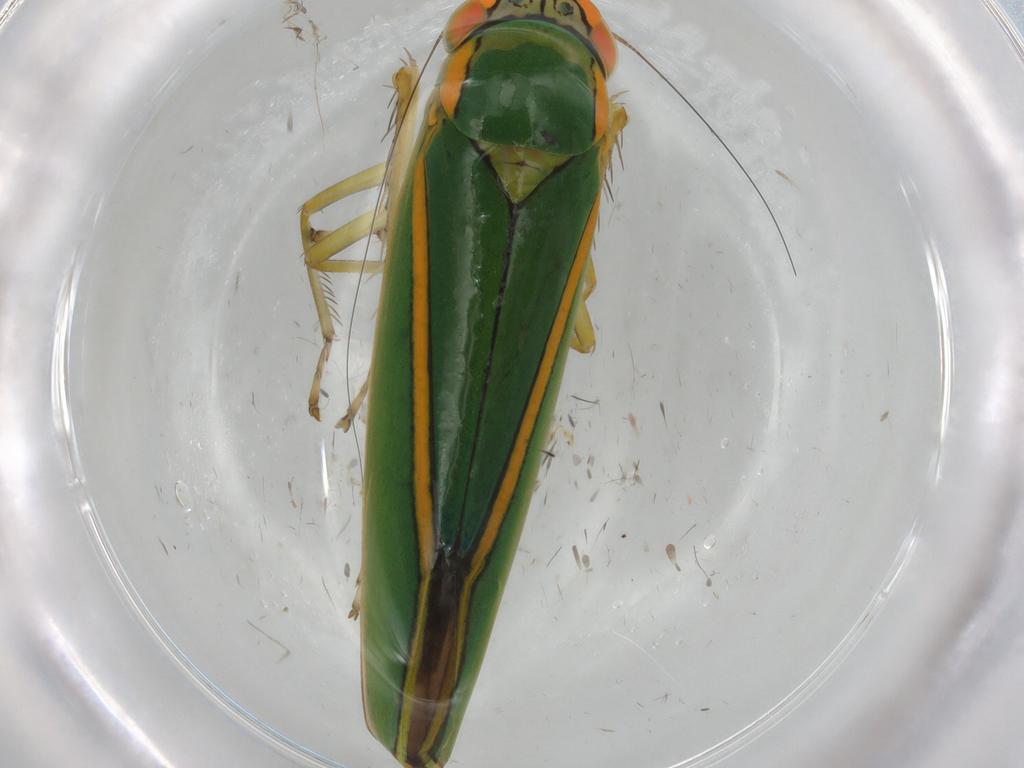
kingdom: Animalia
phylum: Arthropoda
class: Insecta
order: Hemiptera
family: Cicadellidae
